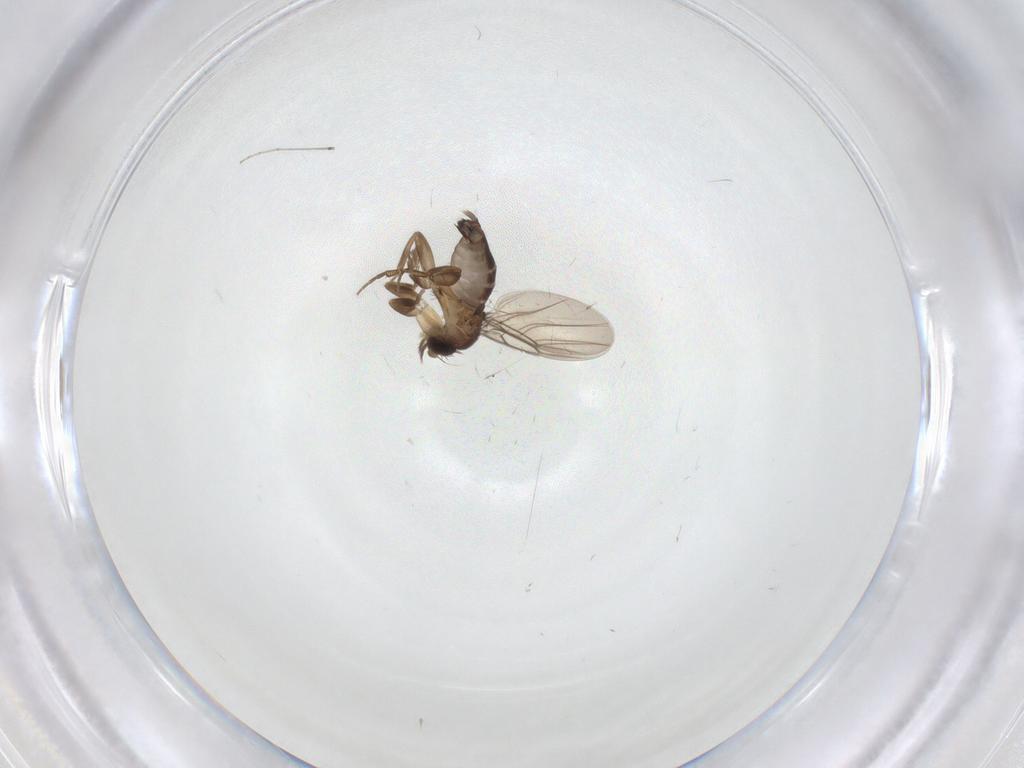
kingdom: Animalia
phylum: Arthropoda
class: Insecta
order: Diptera
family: Phoridae
